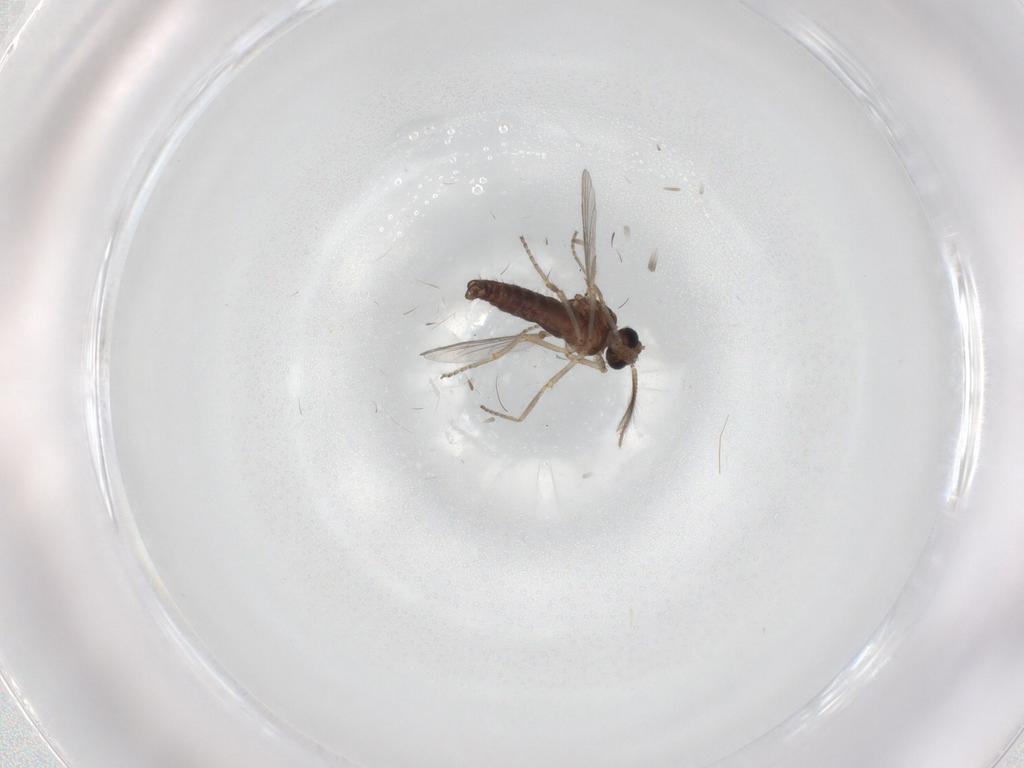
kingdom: Animalia
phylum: Arthropoda
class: Insecta
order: Diptera
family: Ceratopogonidae
